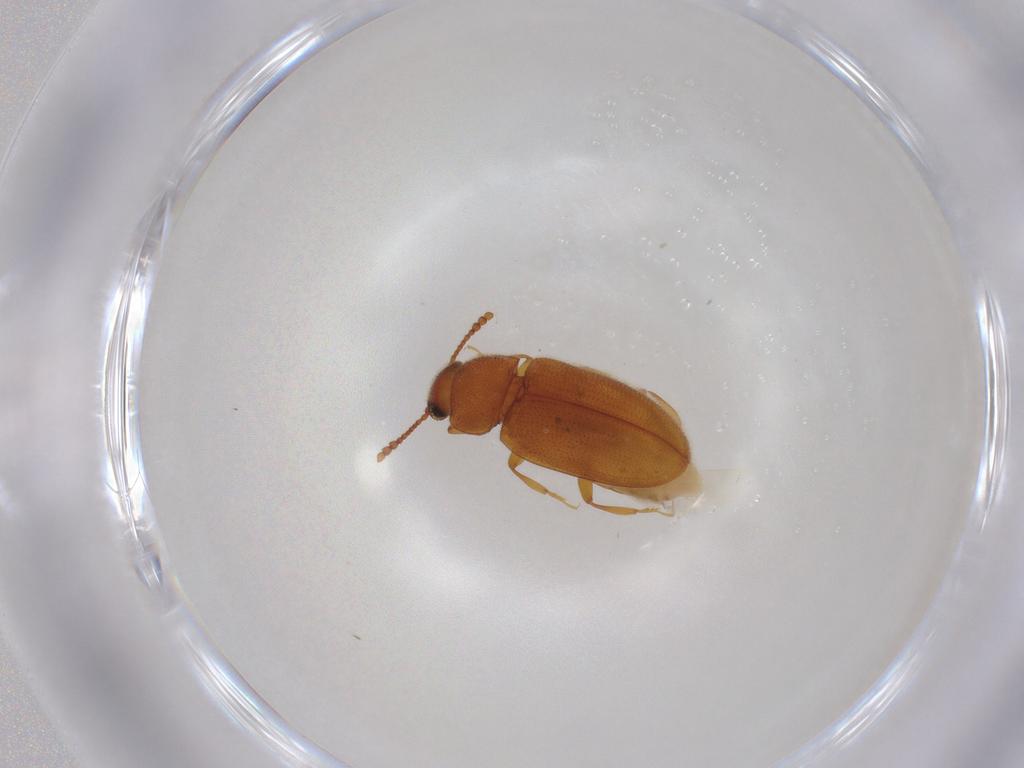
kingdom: Animalia
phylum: Arthropoda
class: Insecta
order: Coleoptera
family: Erotylidae
